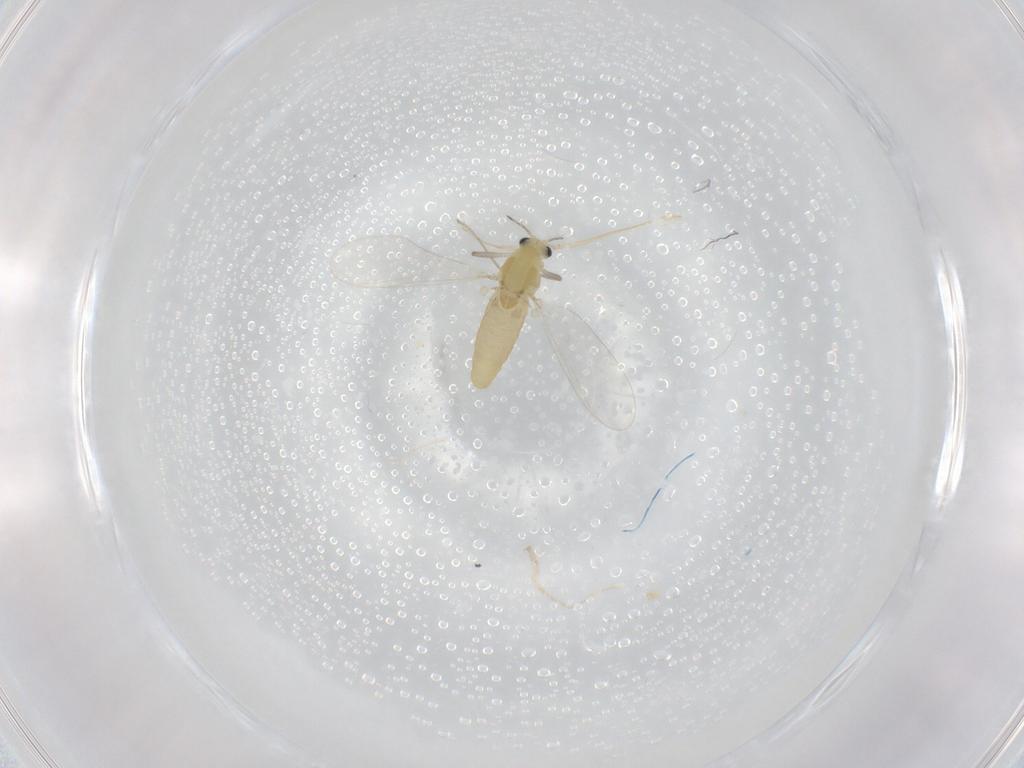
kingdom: Animalia
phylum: Arthropoda
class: Insecta
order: Diptera
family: Chironomidae
